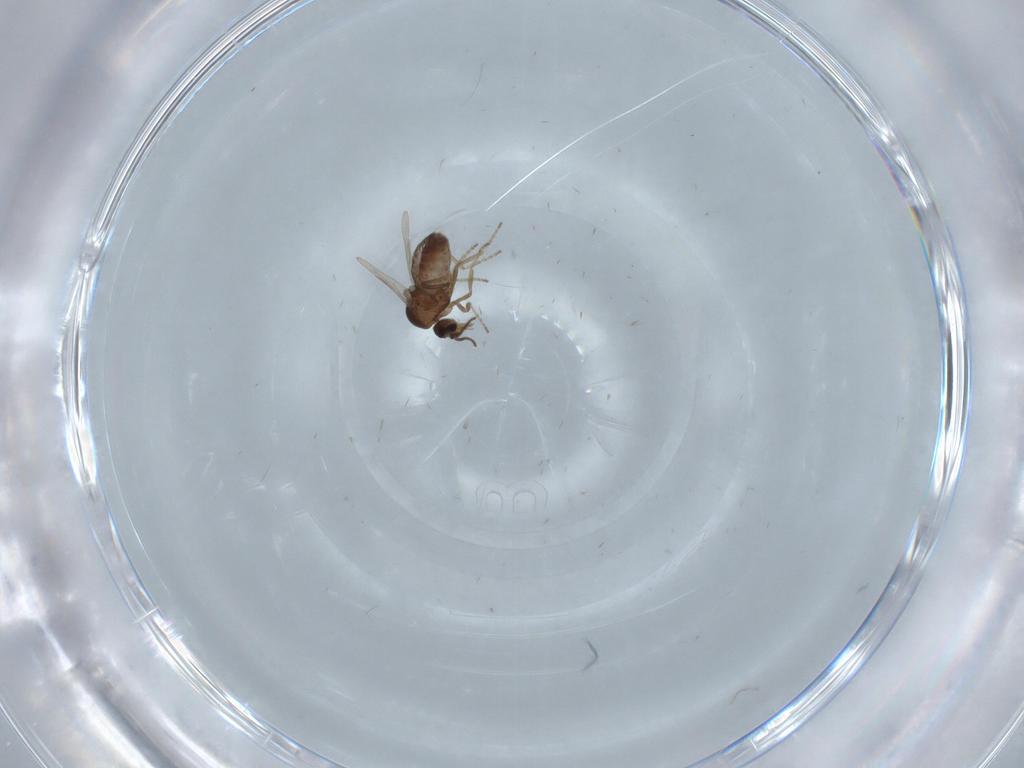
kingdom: Animalia
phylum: Arthropoda
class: Insecta
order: Diptera
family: Ceratopogonidae
